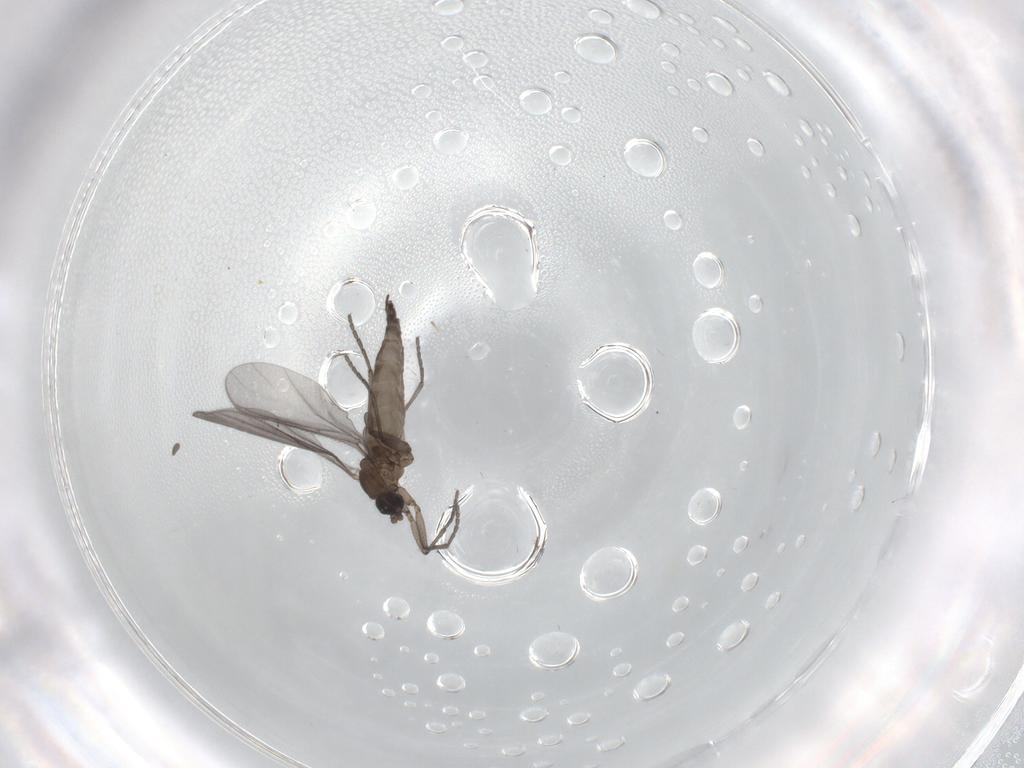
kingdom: Animalia
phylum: Arthropoda
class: Insecta
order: Diptera
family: Sciaridae
